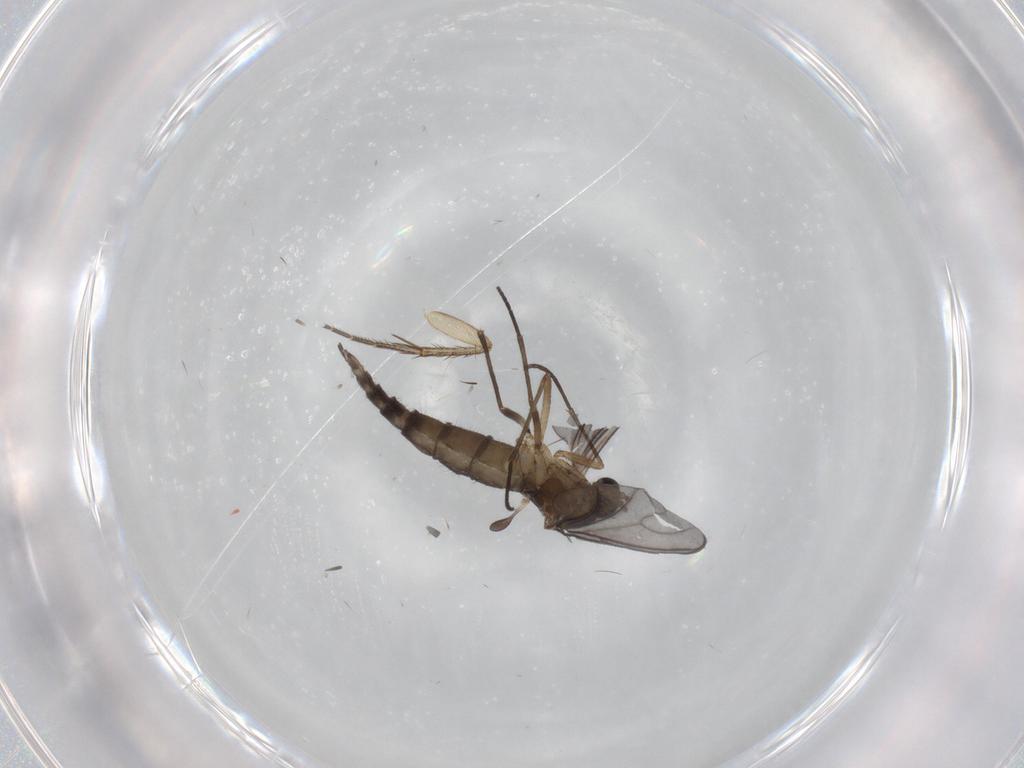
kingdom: Animalia
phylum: Arthropoda
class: Insecta
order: Diptera
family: Sciaridae
